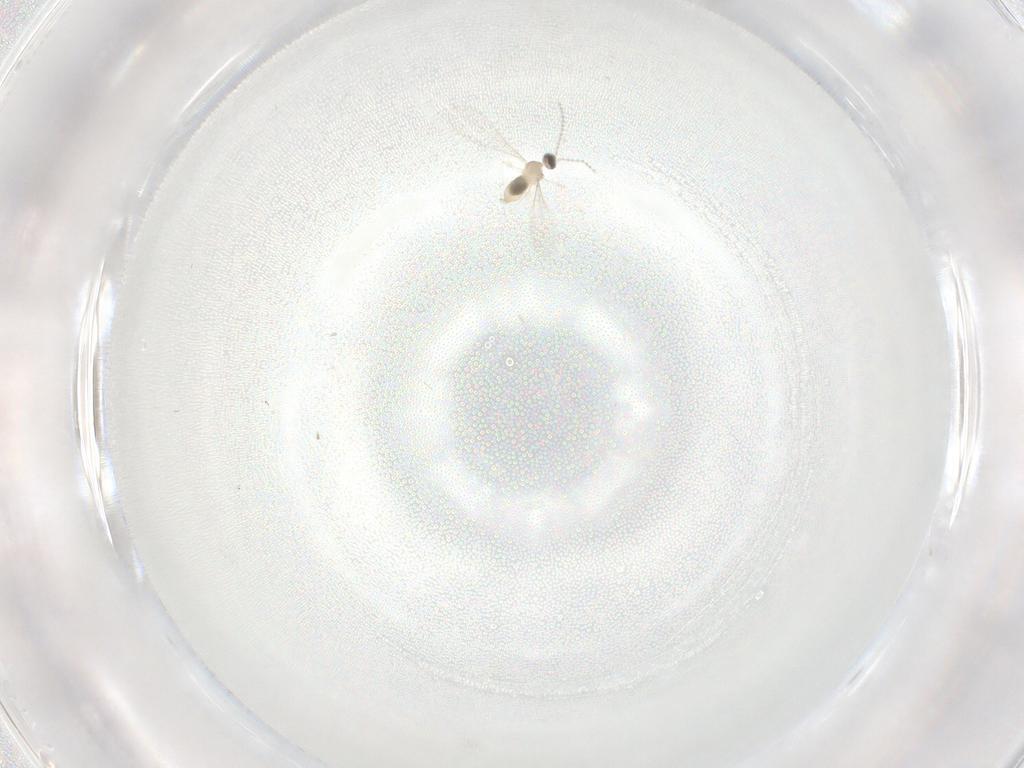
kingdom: Animalia
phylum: Arthropoda
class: Insecta
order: Diptera
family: Cecidomyiidae
